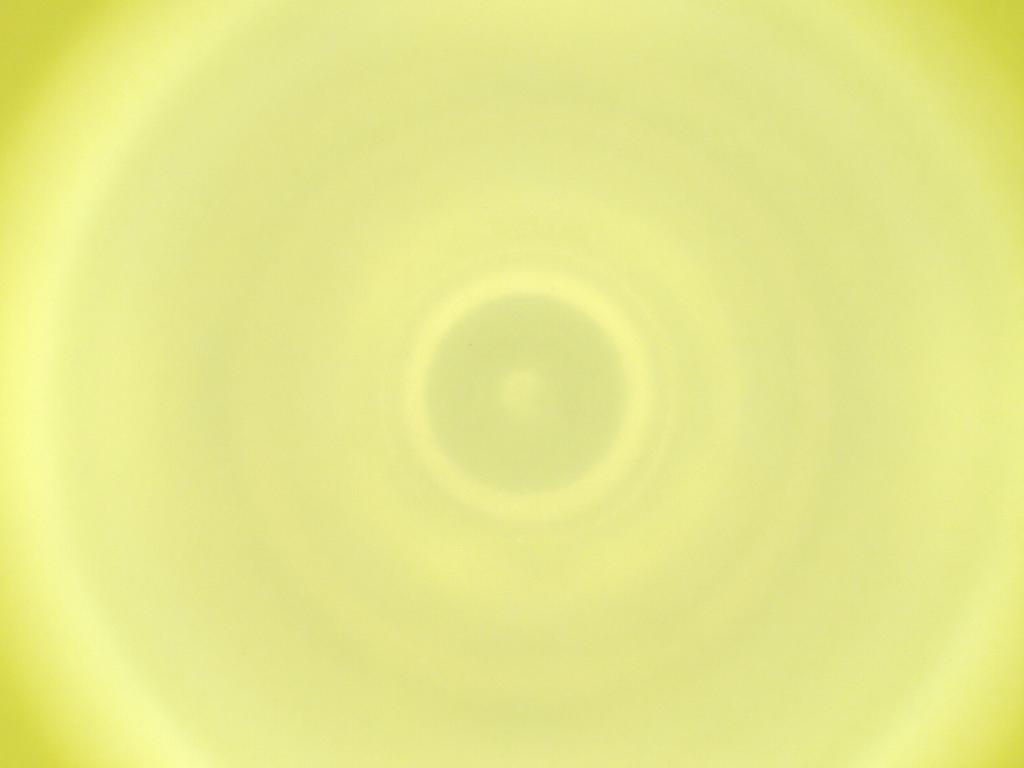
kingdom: Animalia
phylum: Arthropoda
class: Insecta
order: Diptera
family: Cecidomyiidae
